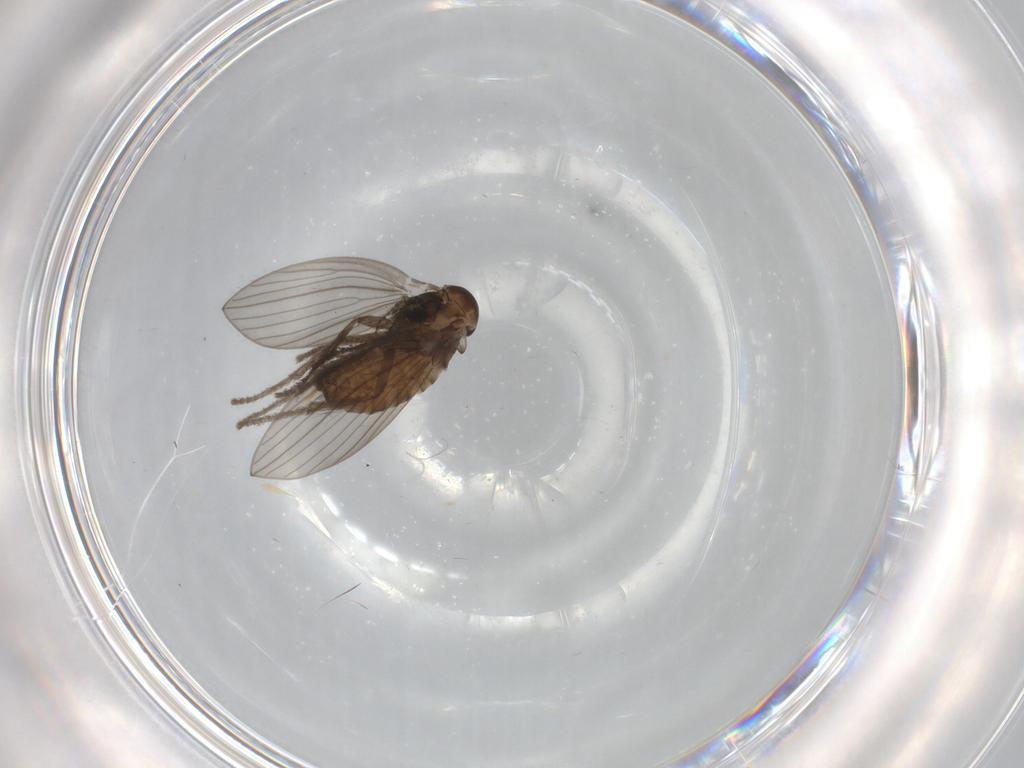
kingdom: Animalia
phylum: Arthropoda
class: Insecta
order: Diptera
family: Psychodidae
